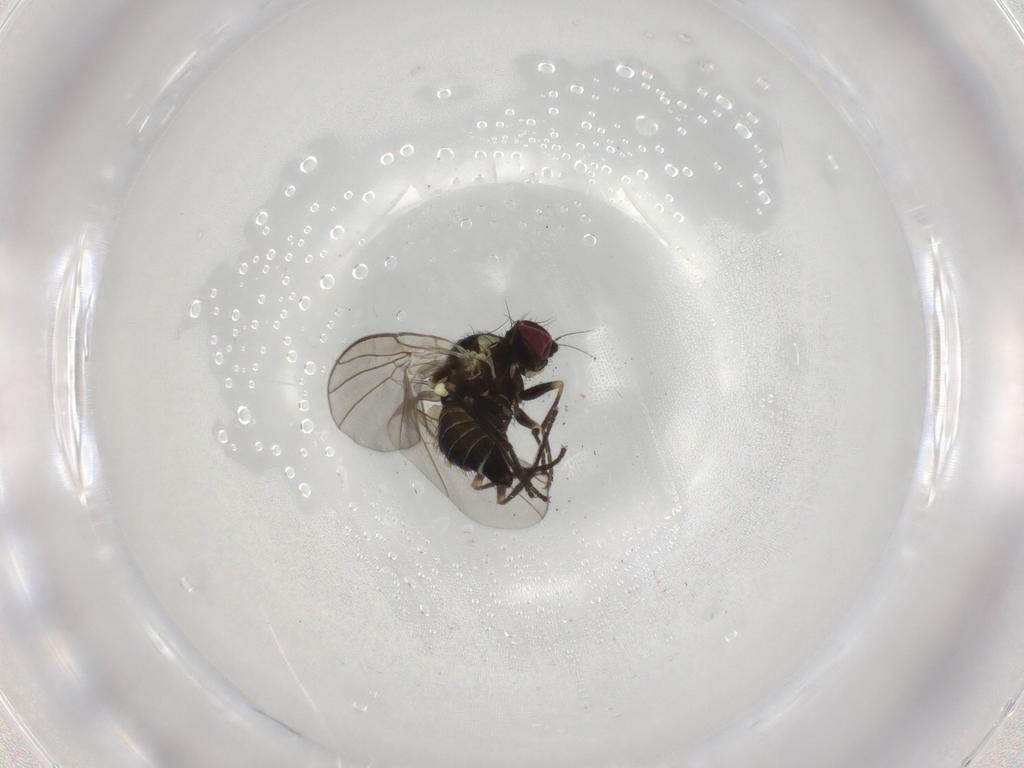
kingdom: Animalia
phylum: Arthropoda
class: Insecta
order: Diptera
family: Agromyzidae
